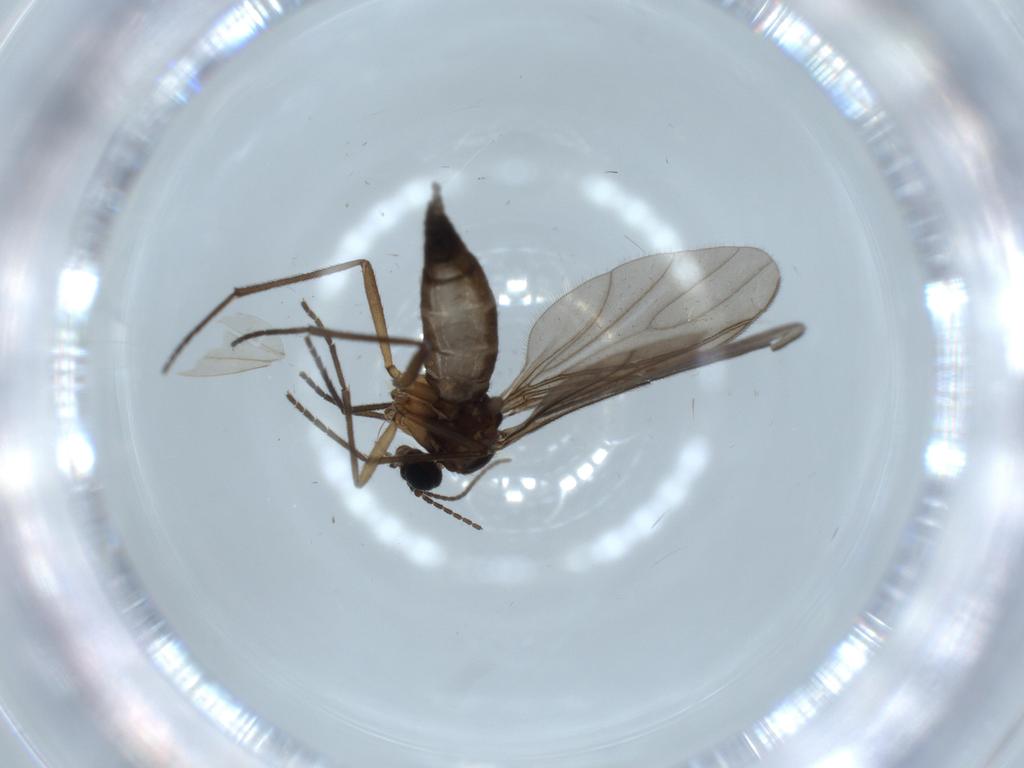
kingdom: Animalia
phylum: Arthropoda
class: Insecta
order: Diptera
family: Sciaridae
